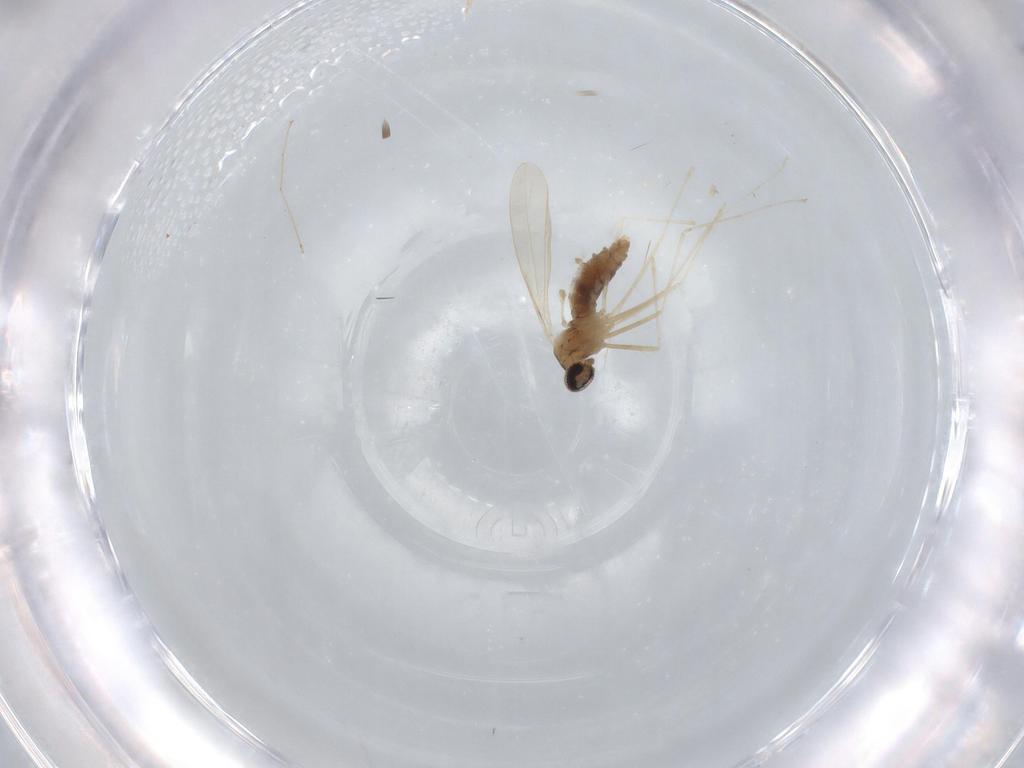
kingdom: Animalia
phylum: Arthropoda
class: Insecta
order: Diptera
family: Cecidomyiidae
